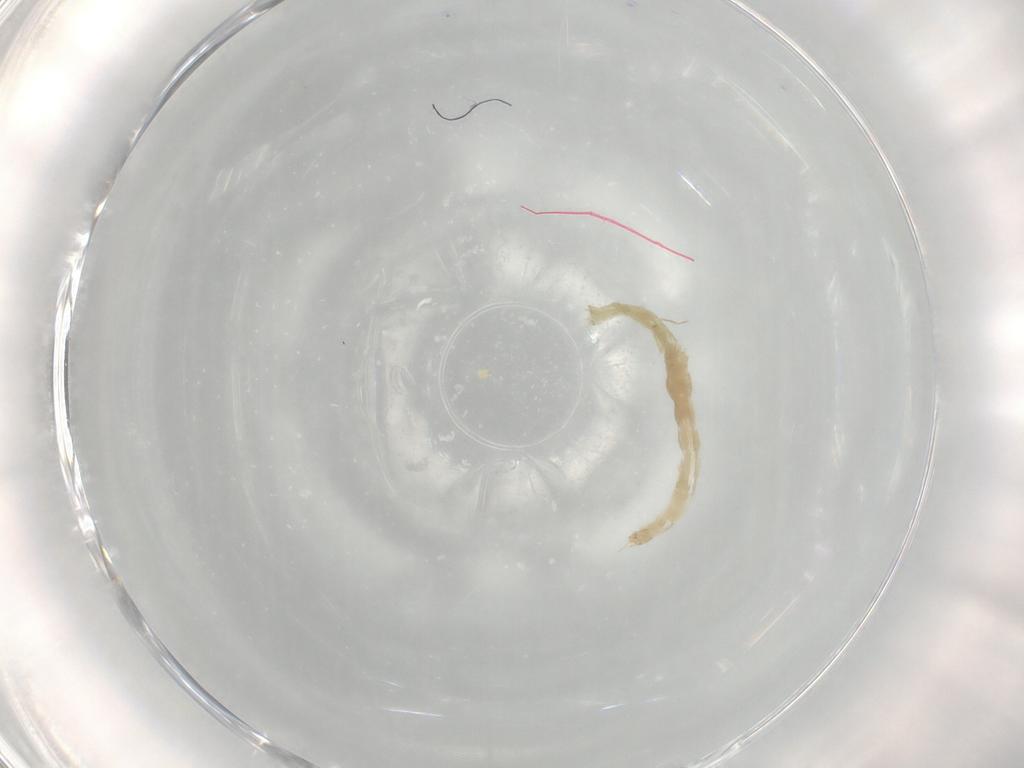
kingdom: Animalia
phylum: Arthropoda
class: Insecta
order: Diptera
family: Chironomidae
